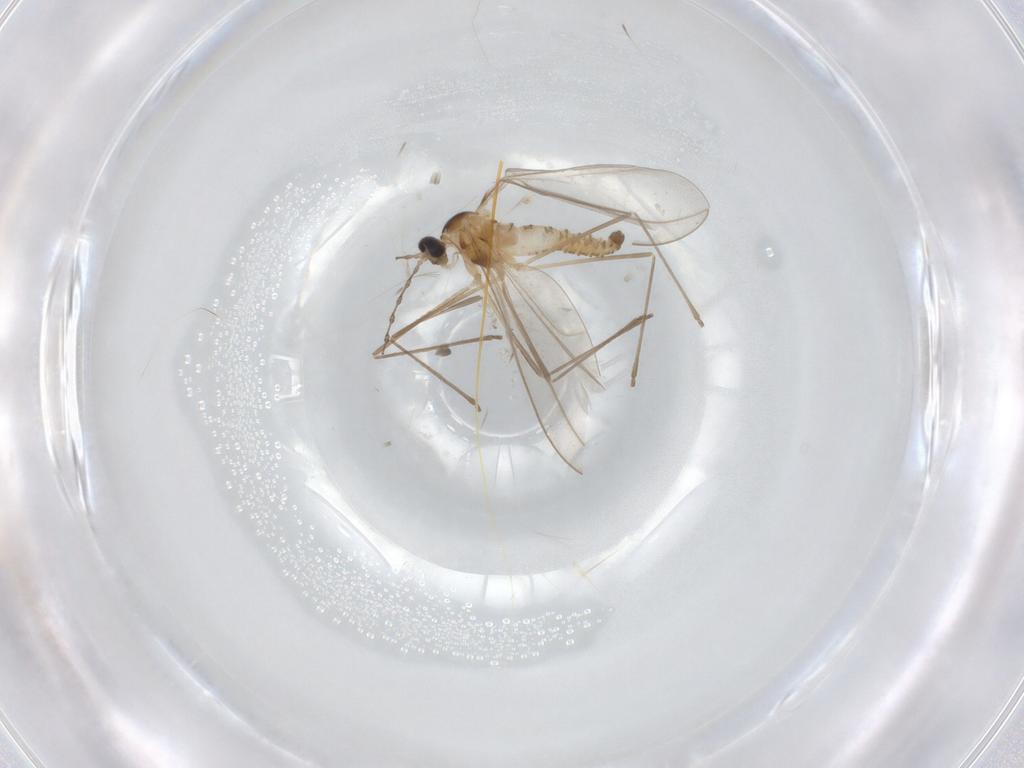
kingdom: Animalia
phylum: Arthropoda
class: Insecta
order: Diptera
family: Cecidomyiidae
